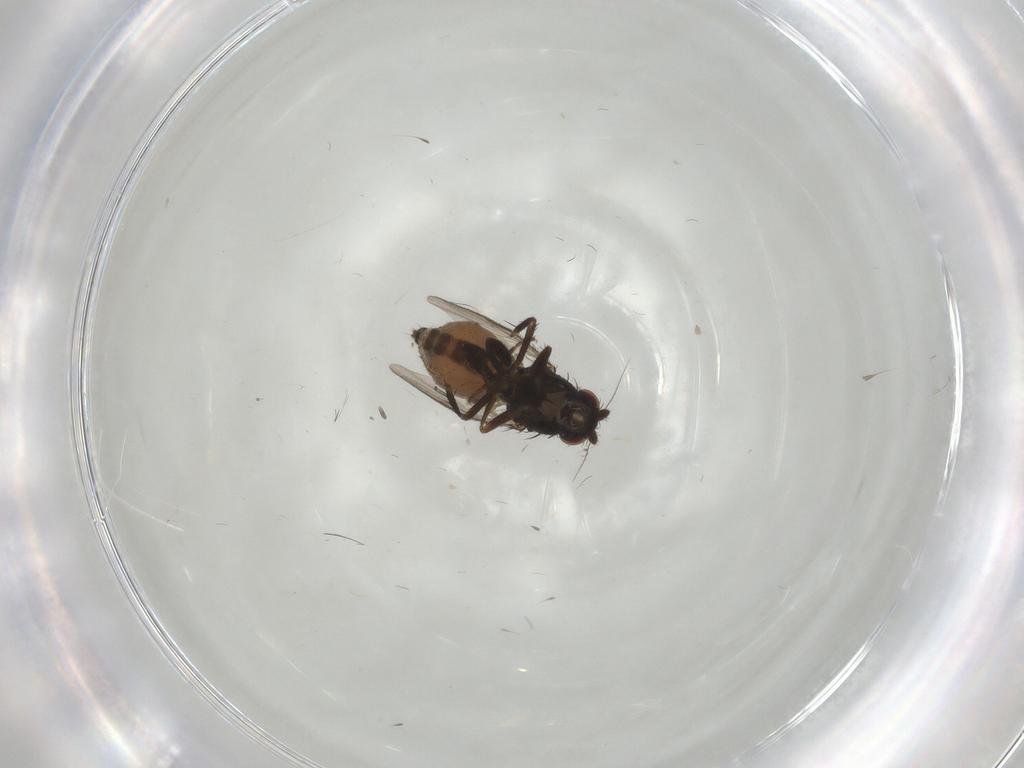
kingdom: Animalia
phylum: Arthropoda
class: Insecta
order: Diptera
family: Sphaeroceridae
